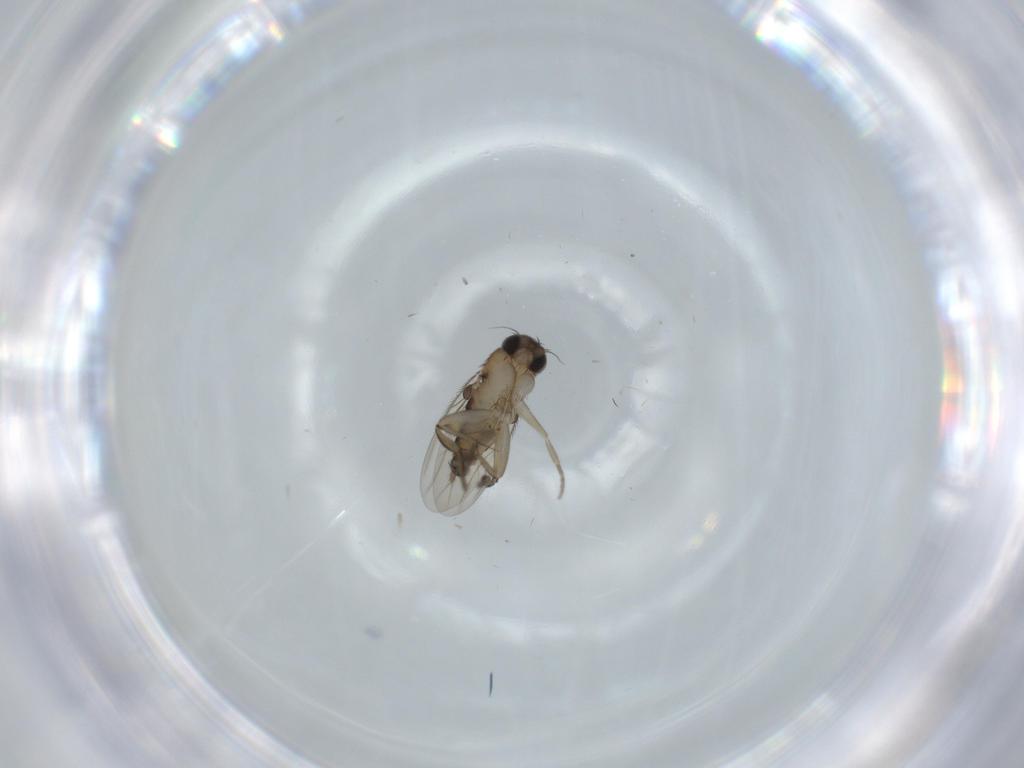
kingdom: Animalia
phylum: Arthropoda
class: Insecta
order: Diptera
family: Phoridae
